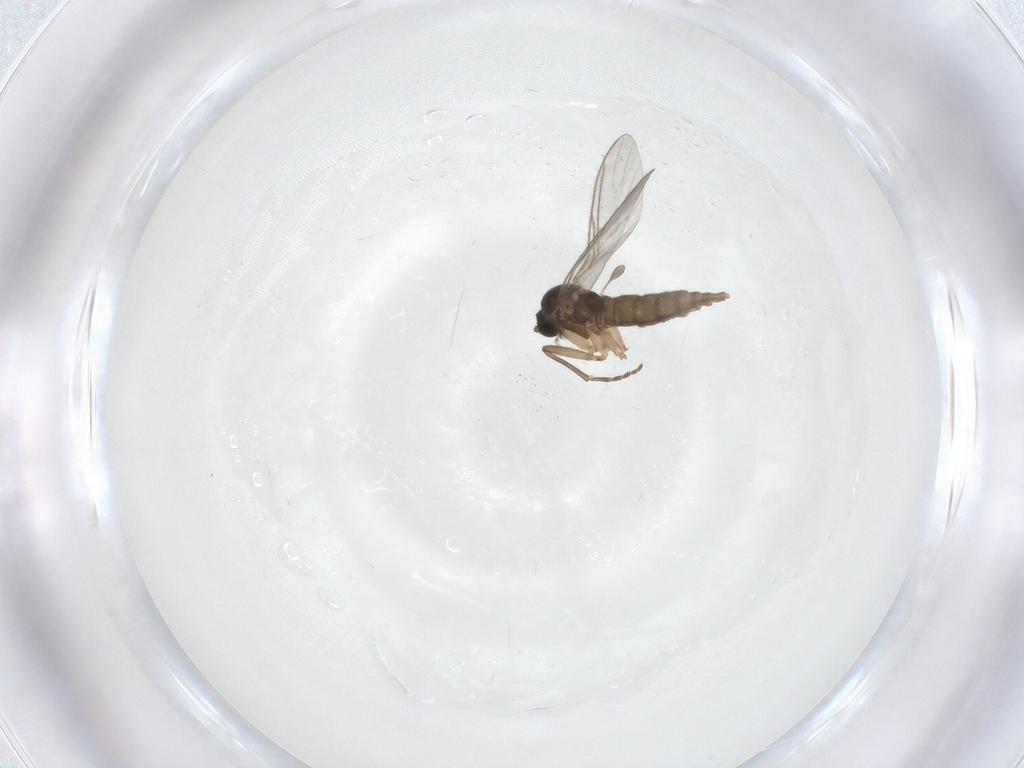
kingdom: Animalia
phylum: Arthropoda
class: Insecta
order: Diptera
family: Sciaridae
